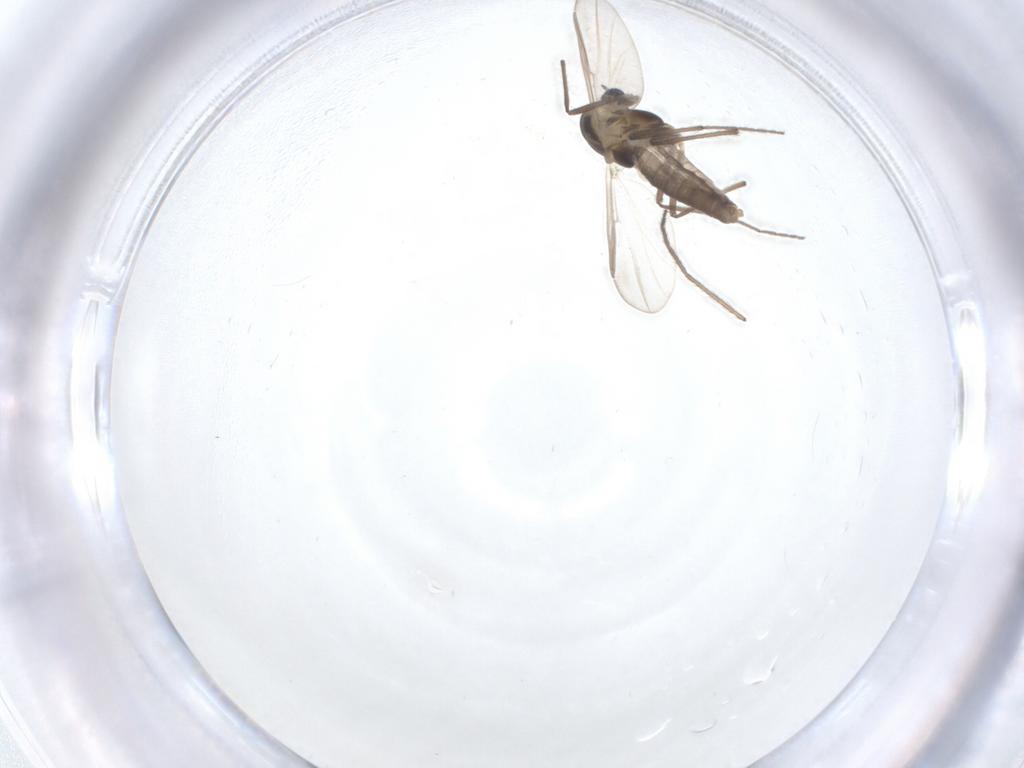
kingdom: Animalia
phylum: Arthropoda
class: Insecta
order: Diptera
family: Chironomidae
